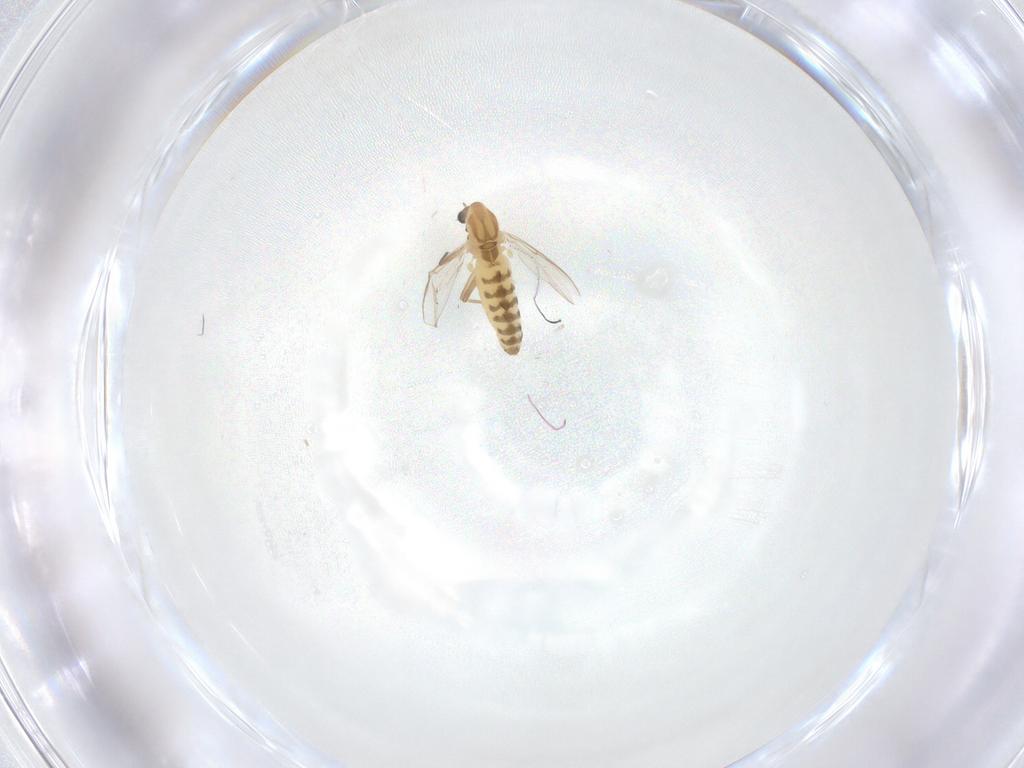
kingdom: Animalia
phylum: Arthropoda
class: Insecta
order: Diptera
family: Chironomidae
